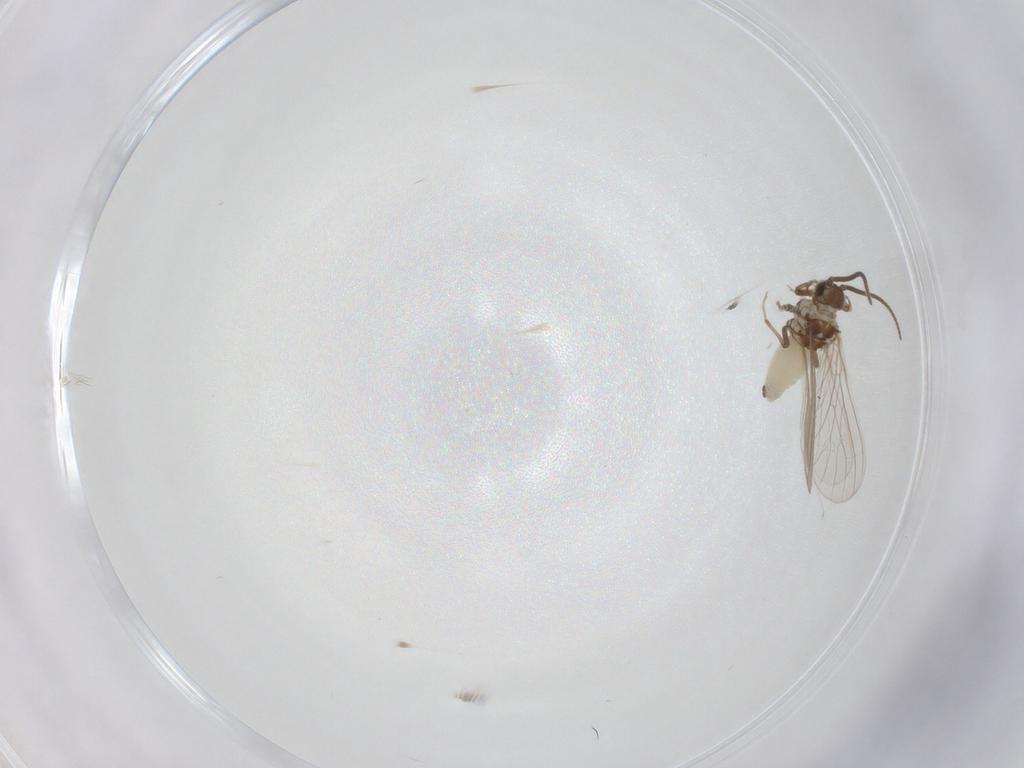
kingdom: Animalia
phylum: Arthropoda
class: Insecta
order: Neuroptera
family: Coniopterygidae
